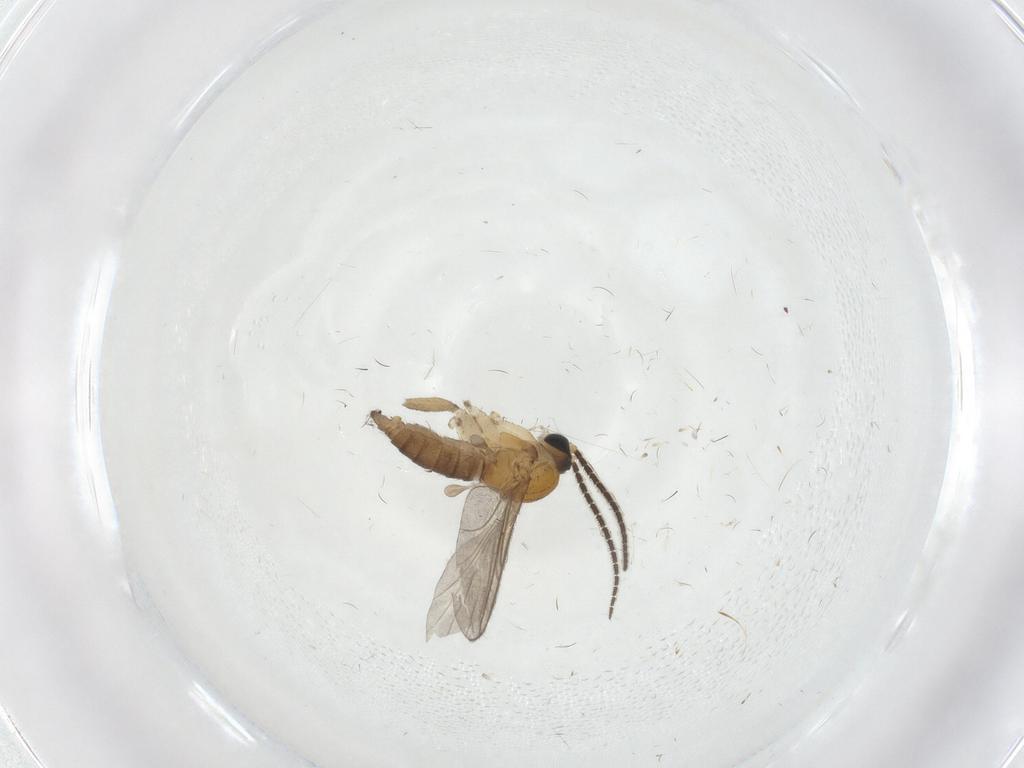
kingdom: Animalia
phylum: Arthropoda
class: Insecta
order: Diptera
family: Sciaridae
